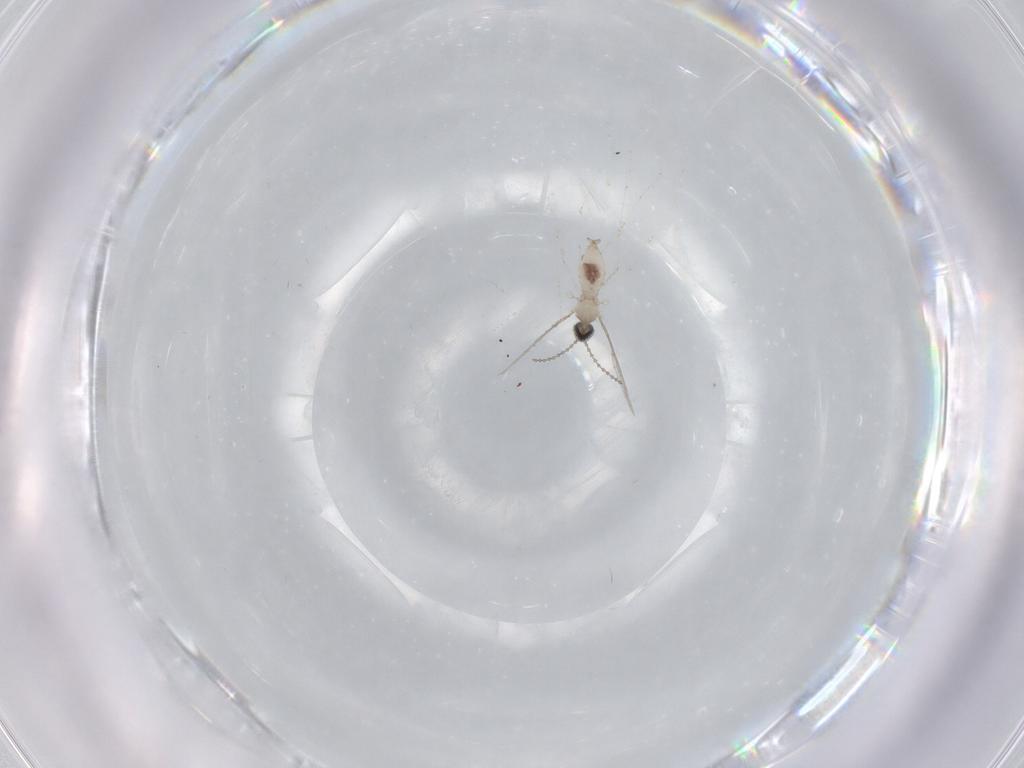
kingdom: Animalia
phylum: Arthropoda
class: Insecta
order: Diptera
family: Cecidomyiidae
